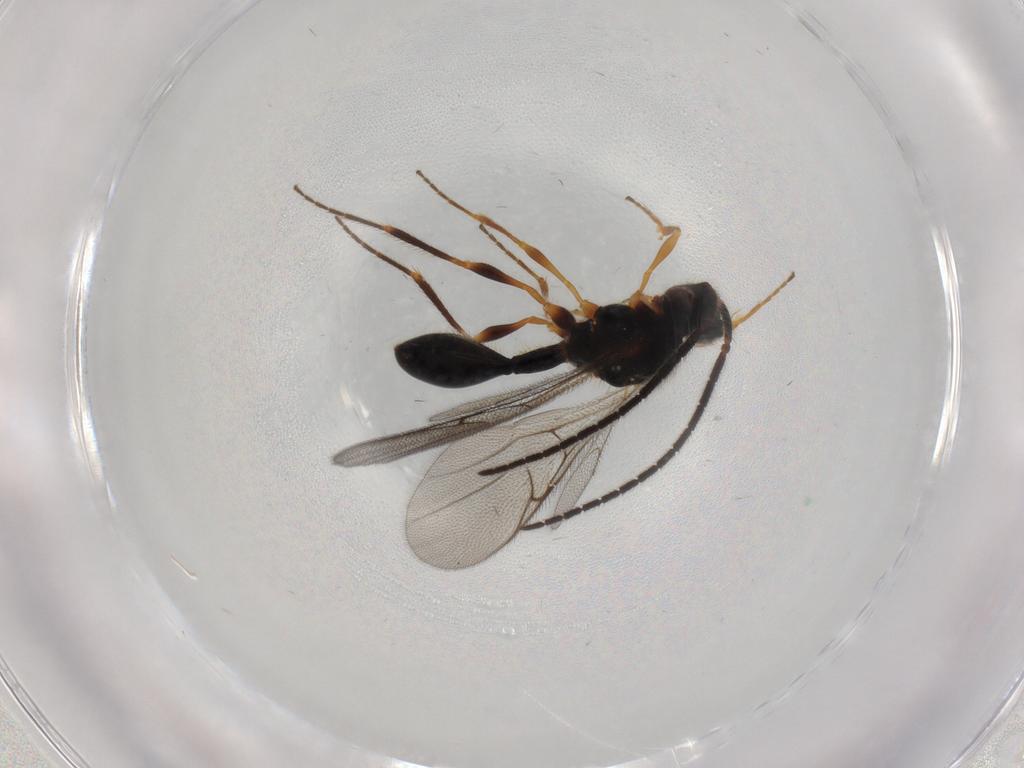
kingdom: Animalia
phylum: Arthropoda
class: Insecta
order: Hymenoptera
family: Diapriidae
